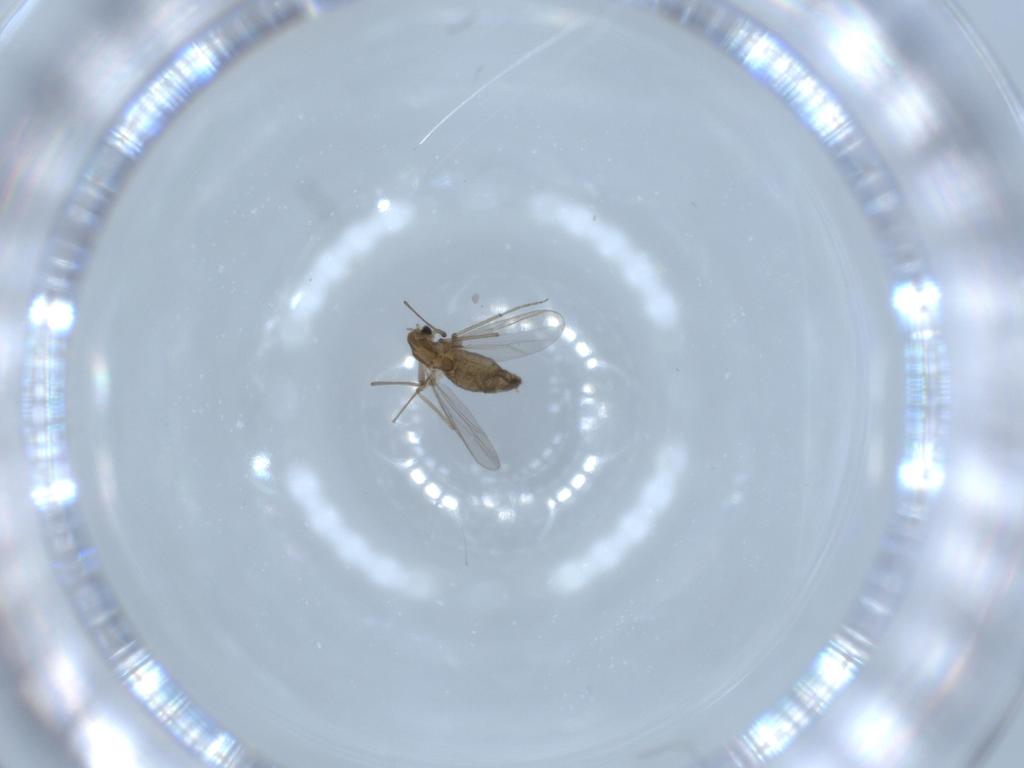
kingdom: Animalia
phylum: Arthropoda
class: Insecta
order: Diptera
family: Chironomidae
